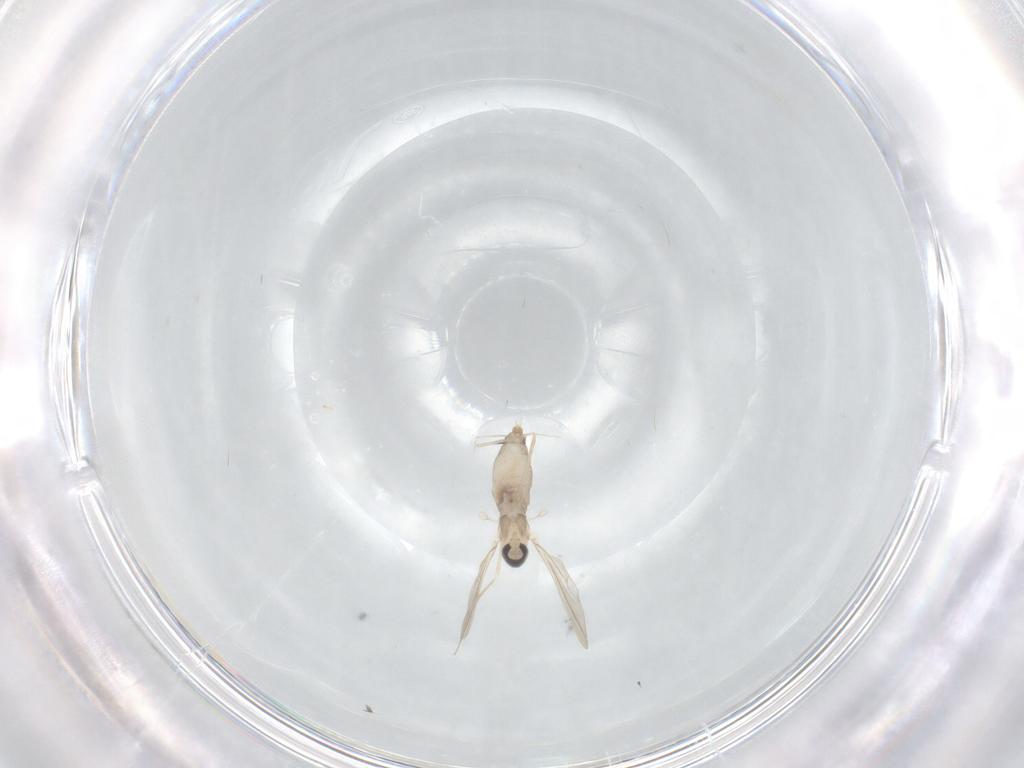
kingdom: Animalia
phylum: Arthropoda
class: Insecta
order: Diptera
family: Cecidomyiidae
